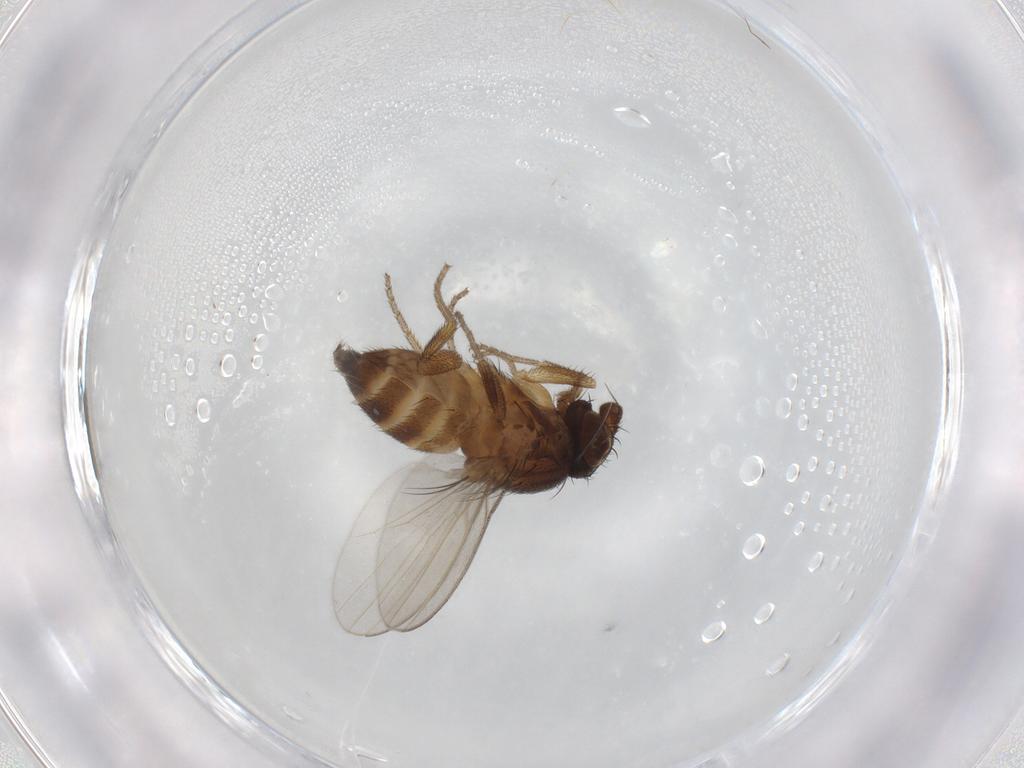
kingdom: Animalia
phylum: Arthropoda
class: Insecta
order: Diptera
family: Milichiidae
